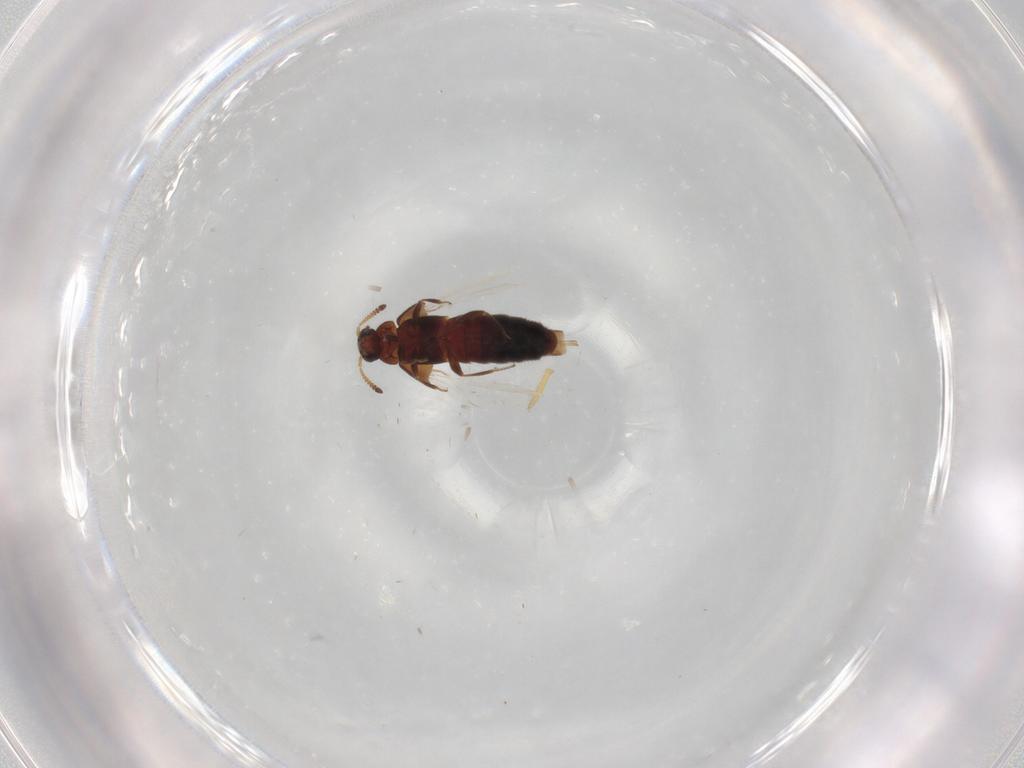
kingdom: Animalia
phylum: Arthropoda
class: Insecta
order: Coleoptera
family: Staphylinidae
